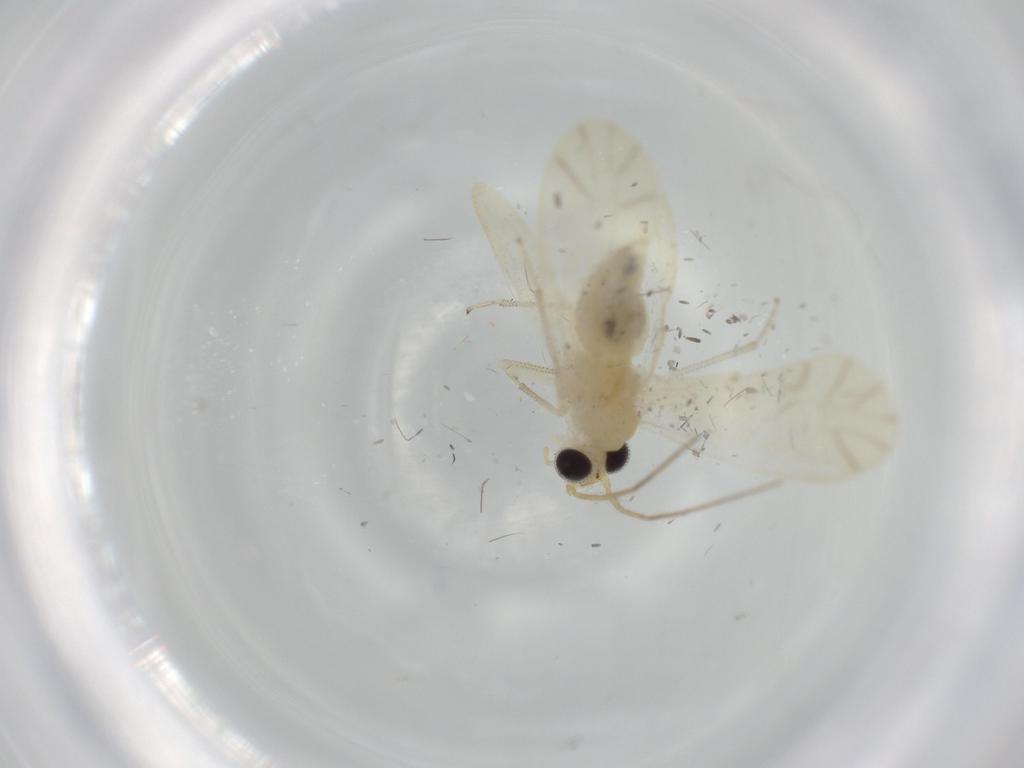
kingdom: Animalia
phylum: Arthropoda
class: Insecta
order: Psocodea
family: Caeciliusidae
